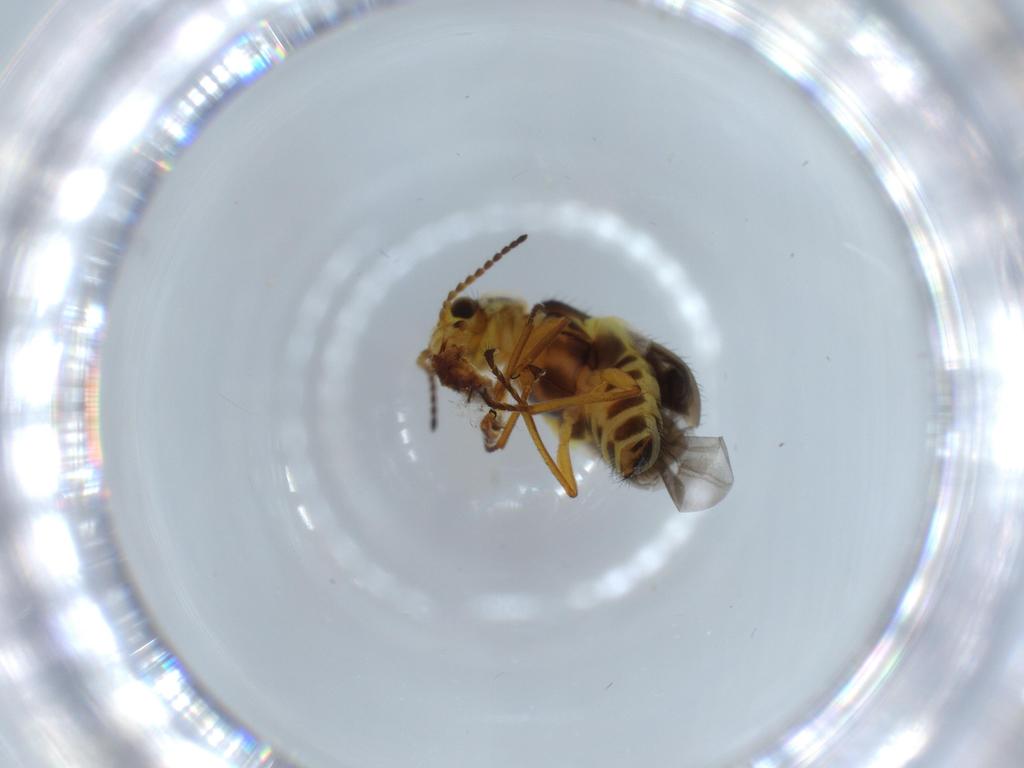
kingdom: Animalia
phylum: Arthropoda
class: Insecta
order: Coleoptera
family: Melyridae
